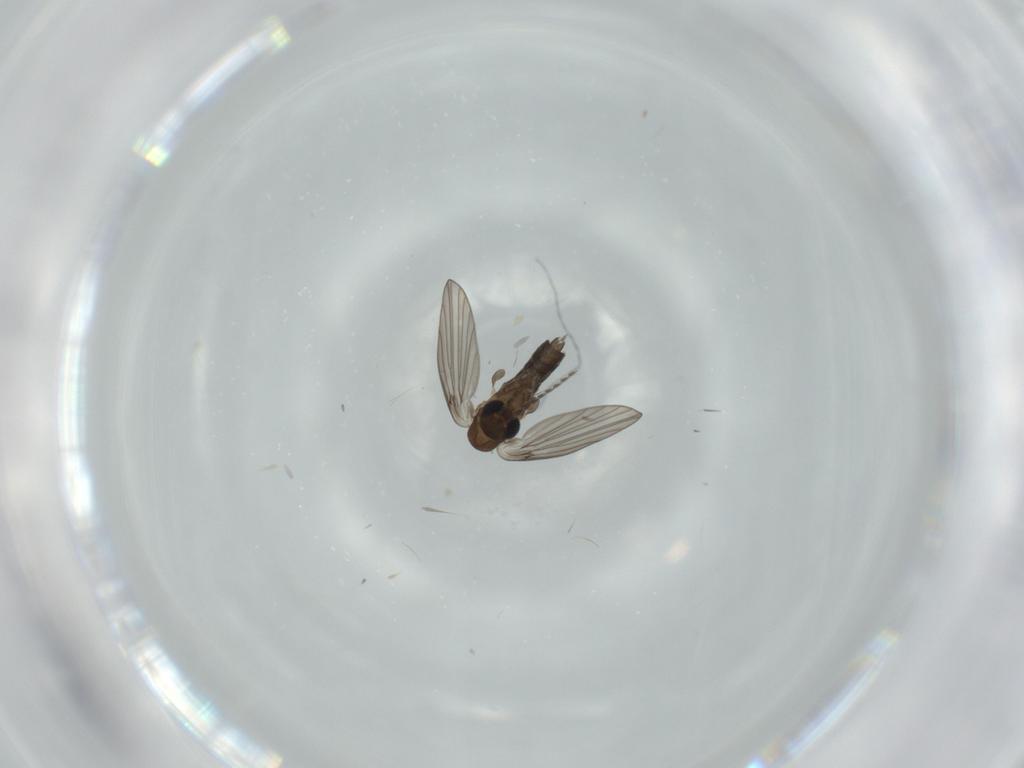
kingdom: Animalia
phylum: Arthropoda
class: Insecta
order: Diptera
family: Psychodidae
